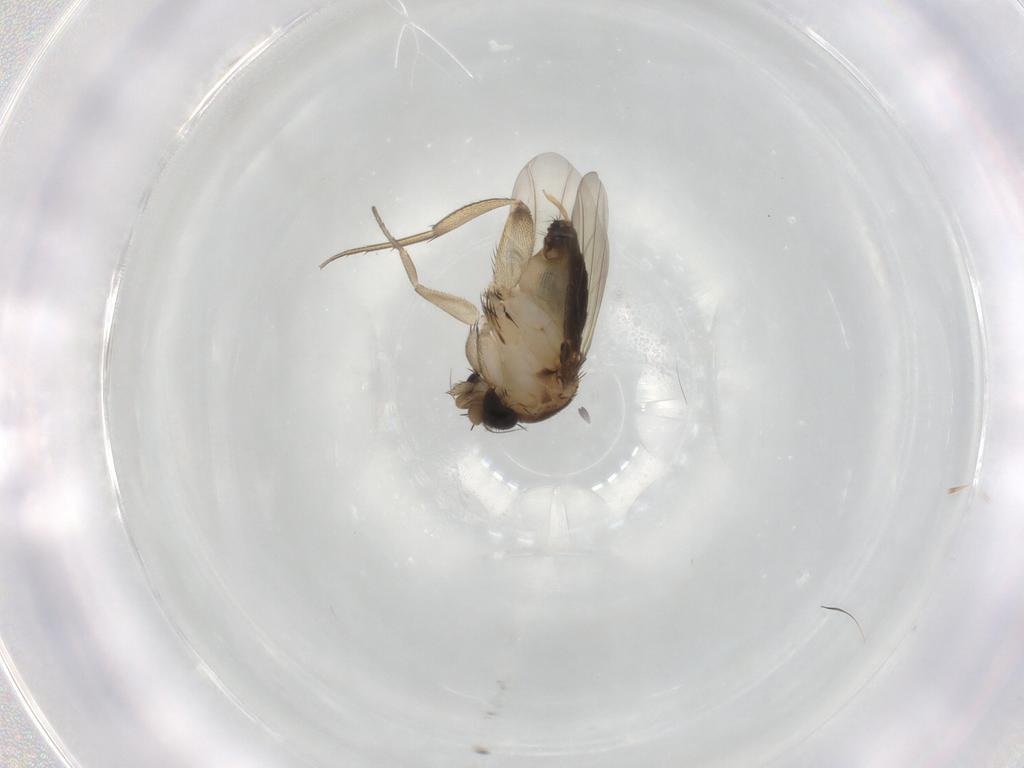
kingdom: Animalia
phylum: Arthropoda
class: Insecta
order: Diptera
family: Phoridae
